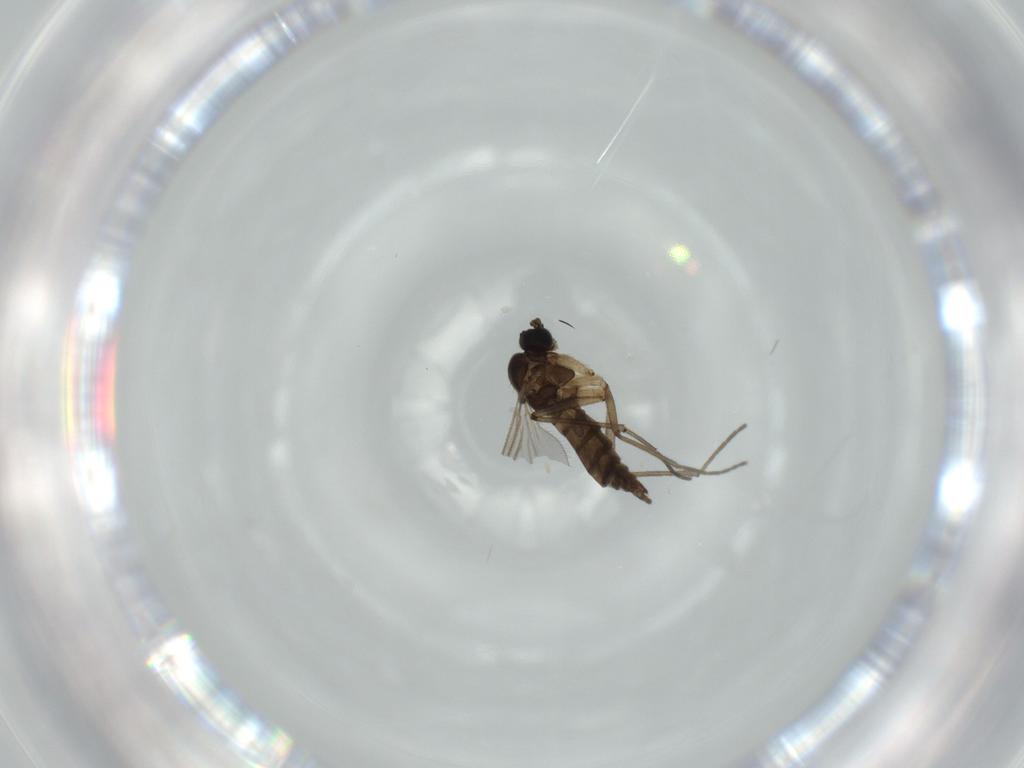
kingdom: Animalia
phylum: Arthropoda
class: Insecta
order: Diptera
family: Sciaridae
